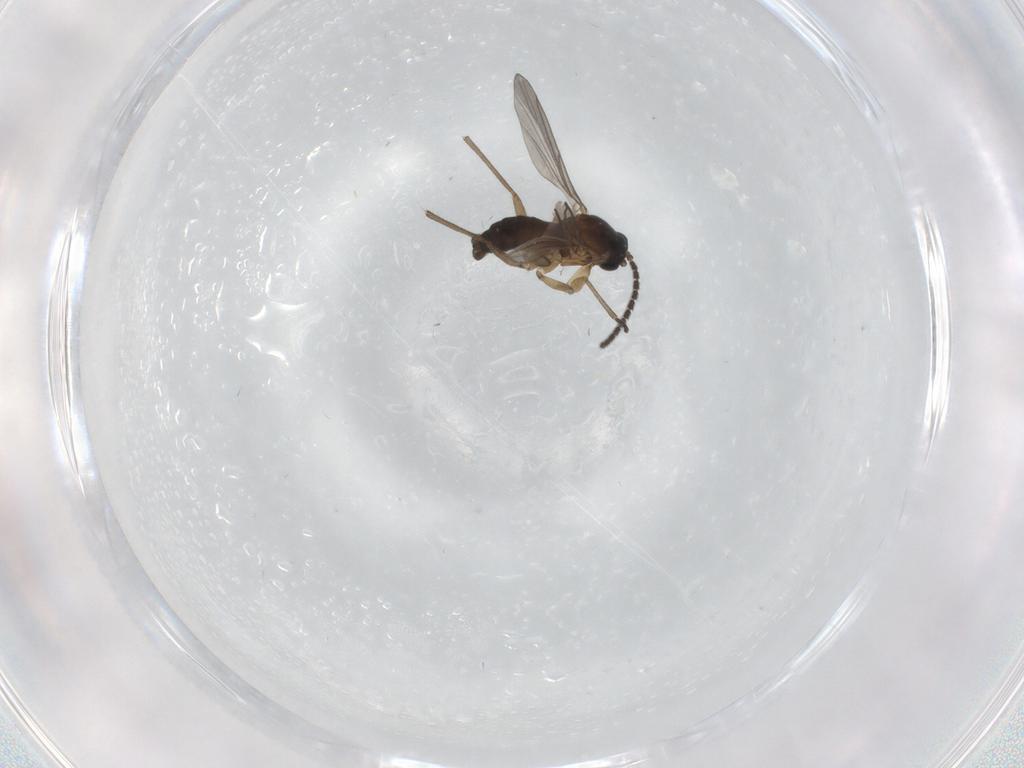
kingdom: Animalia
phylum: Arthropoda
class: Insecta
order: Diptera
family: Sciaridae
